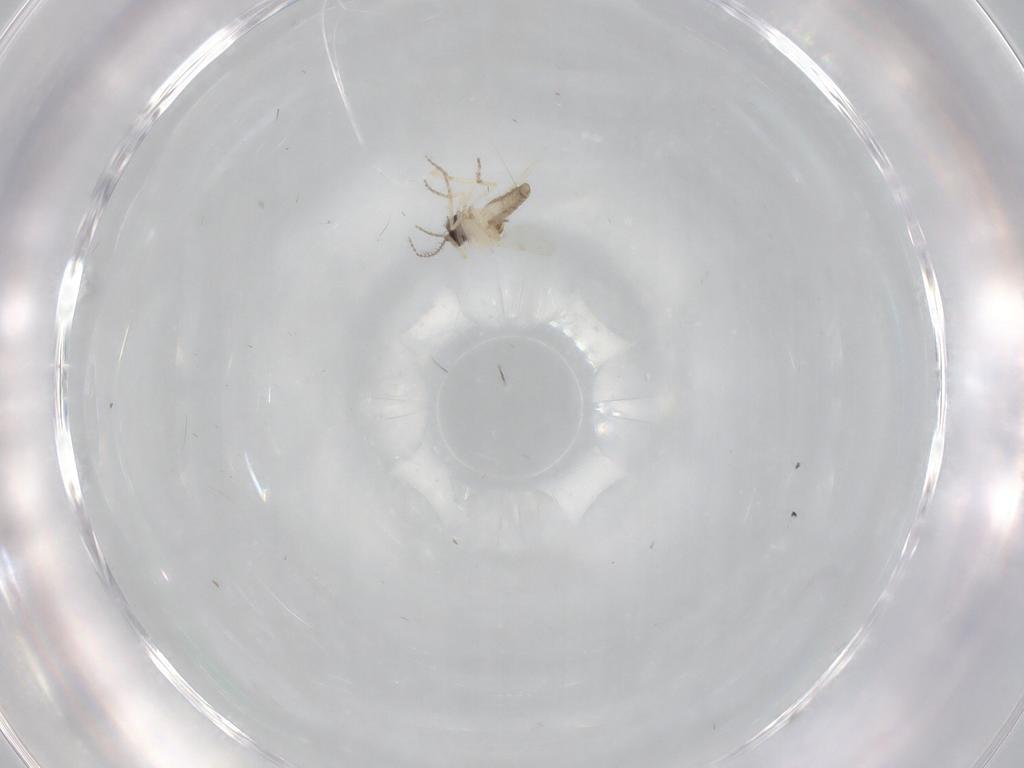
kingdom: Animalia
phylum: Arthropoda
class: Insecta
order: Diptera
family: Ceratopogonidae
